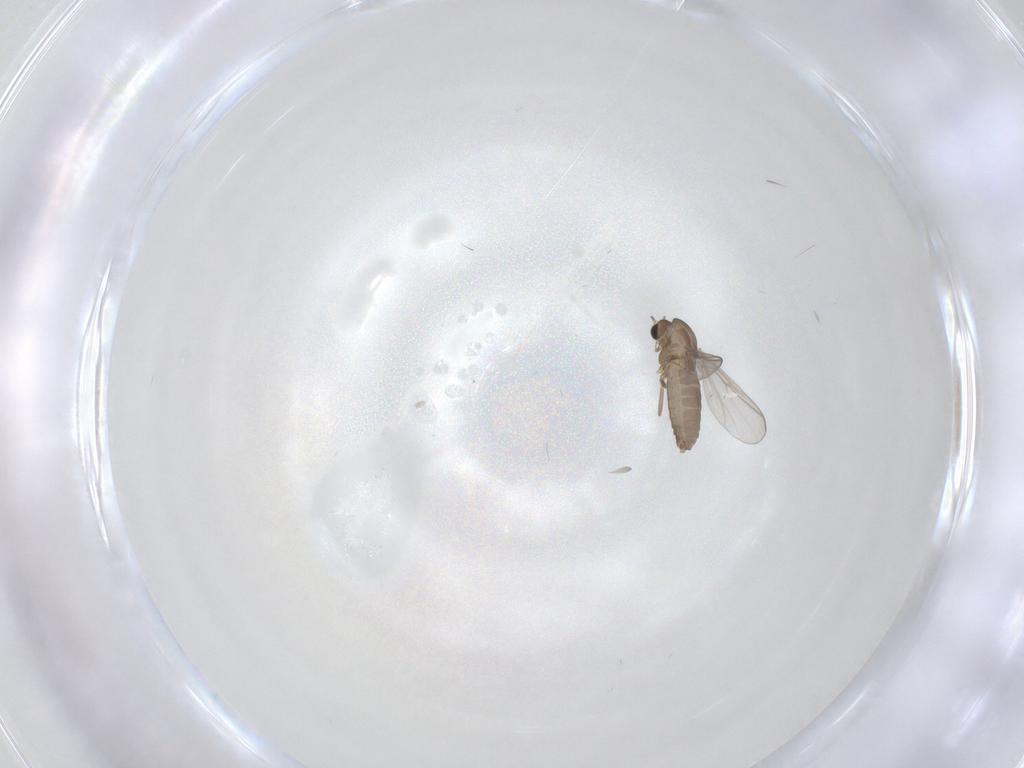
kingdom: Animalia
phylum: Arthropoda
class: Insecta
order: Diptera
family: Chironomidae
